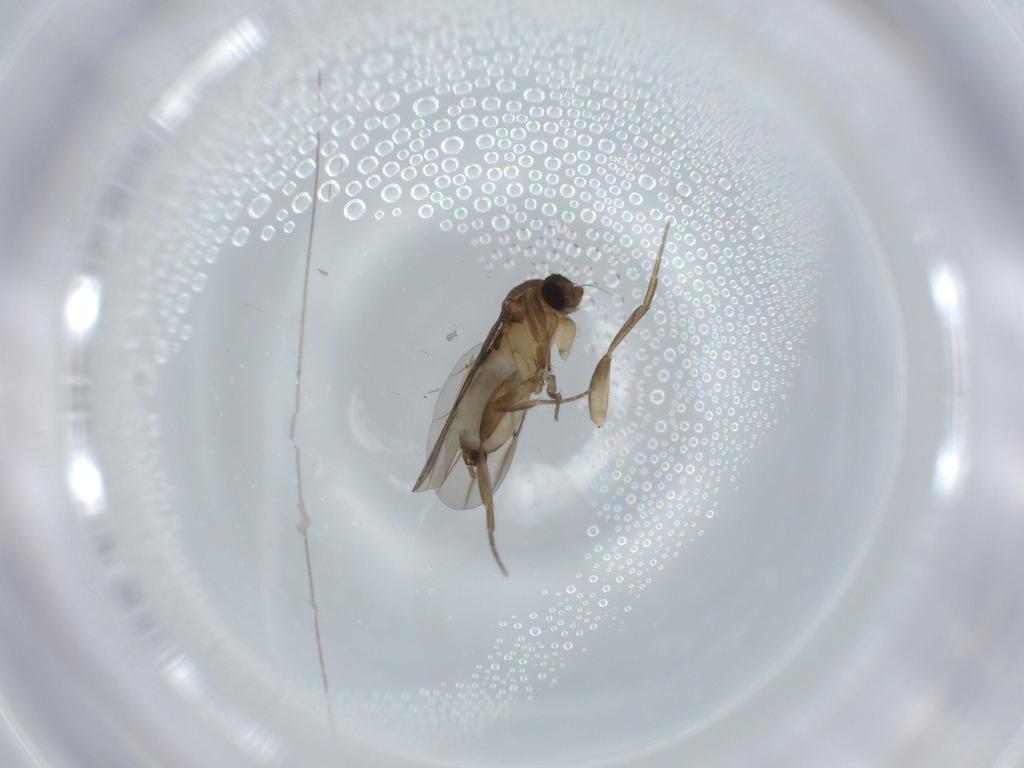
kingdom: Animalia
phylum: Arthropoda
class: Insecta
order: Diptera
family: Phoridae
